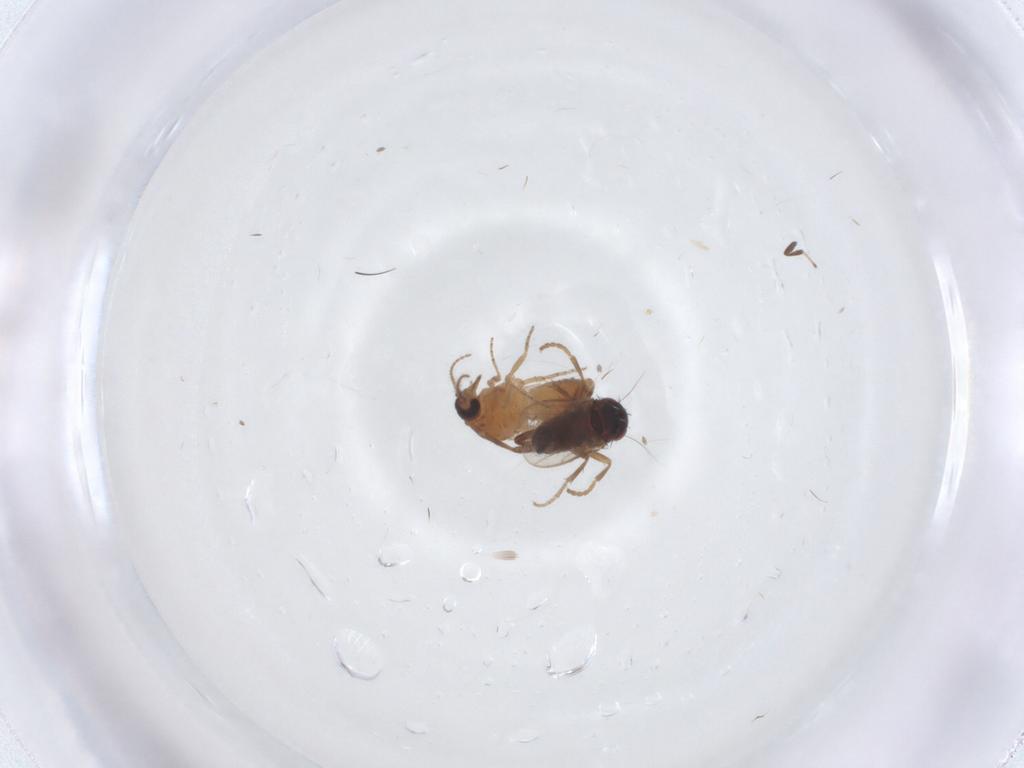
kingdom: Animalia
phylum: Arthropoda
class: Insecta
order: Diptera
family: Ceratopogonidae
